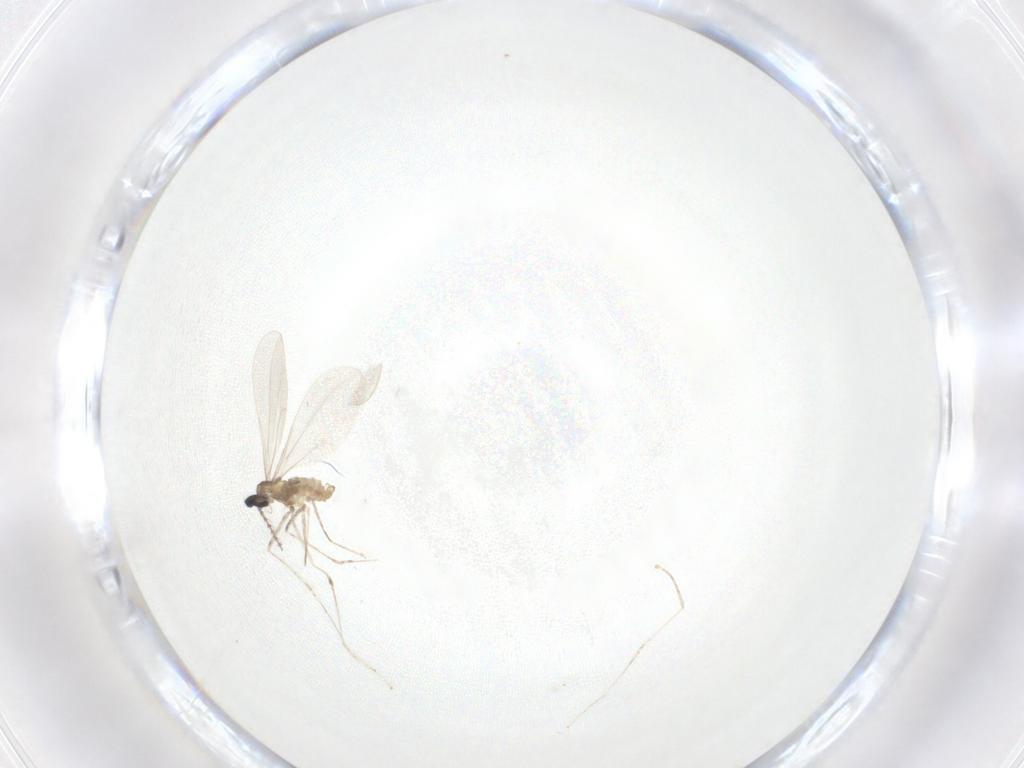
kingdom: Animalia
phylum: Arthropoda
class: Insecta
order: Diptera
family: Cecidomyiidae
